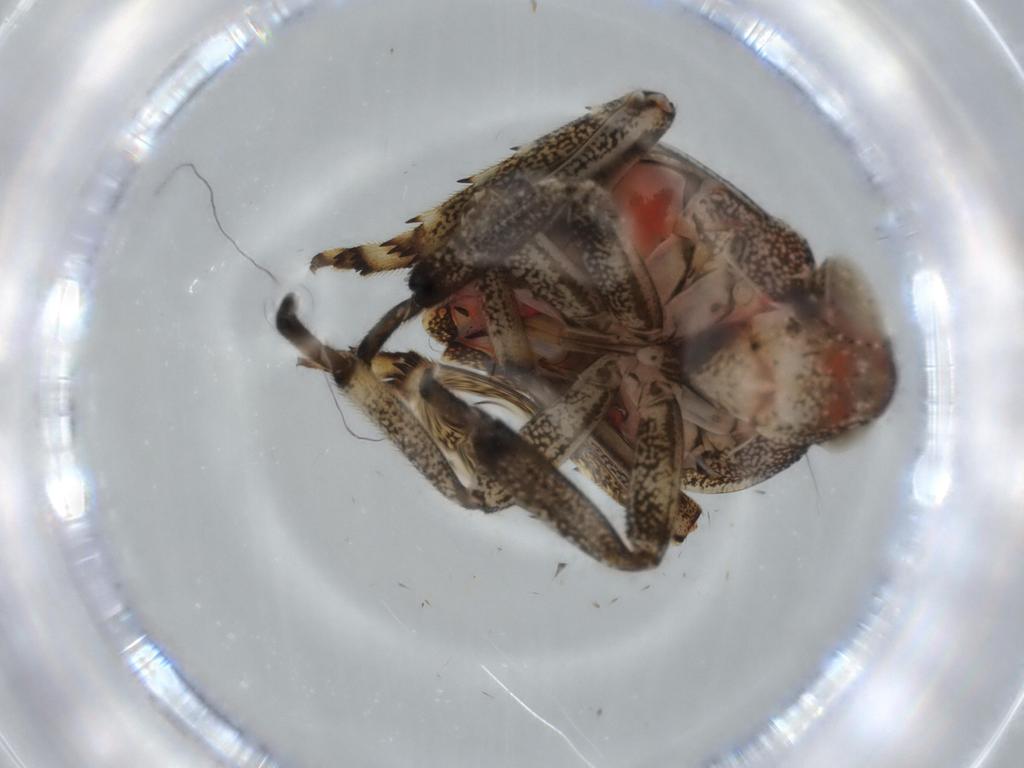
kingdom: Animalia
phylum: Arthropoda
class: Insecta
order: Hemiptera
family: Issidae
